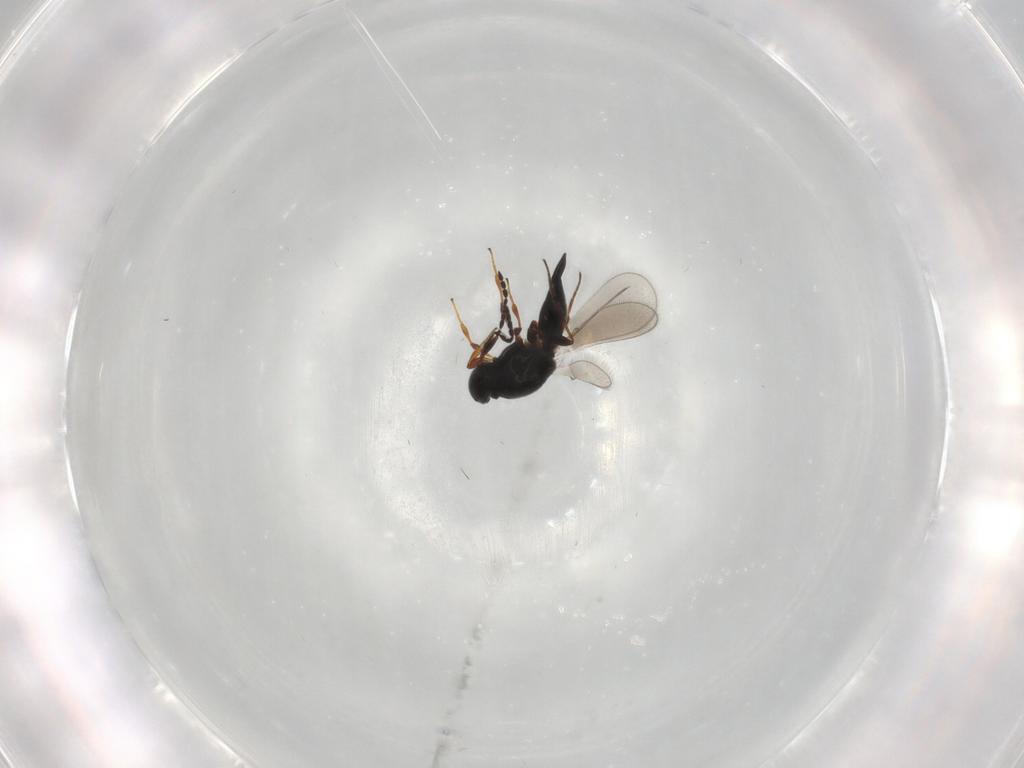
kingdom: Animalia
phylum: Arthropoda
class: Insecta
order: Hymenoptera
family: Platygastridae
